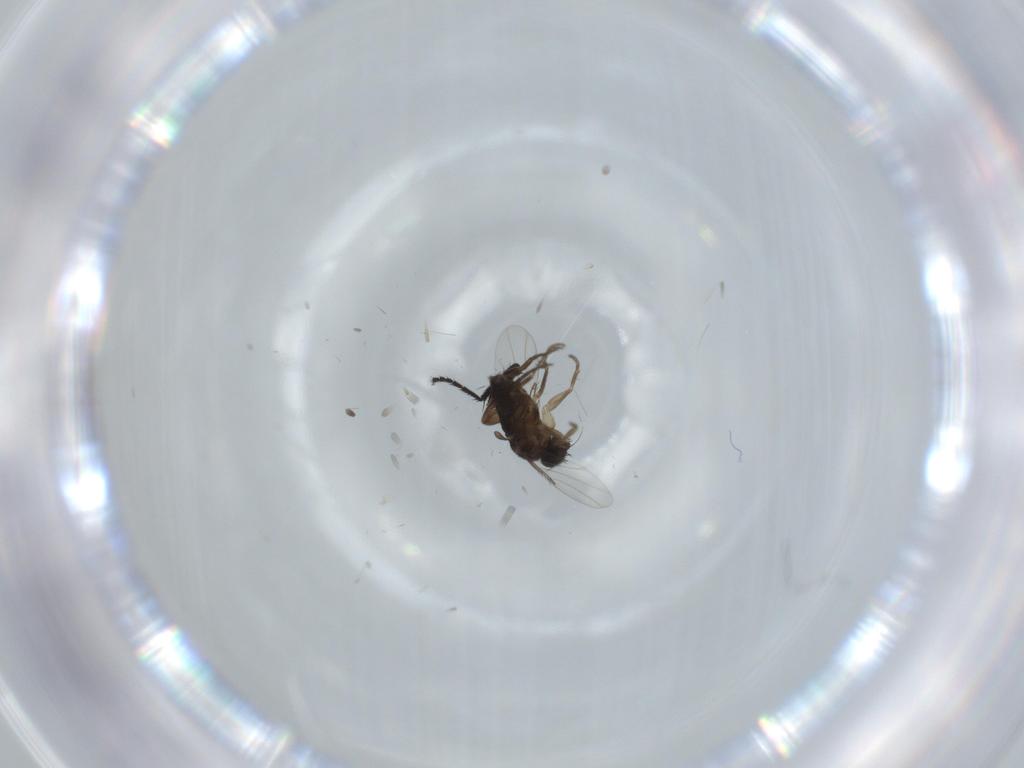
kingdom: Animalia
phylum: Arthropoda
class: Insecta
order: Diptera
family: Phoridae
